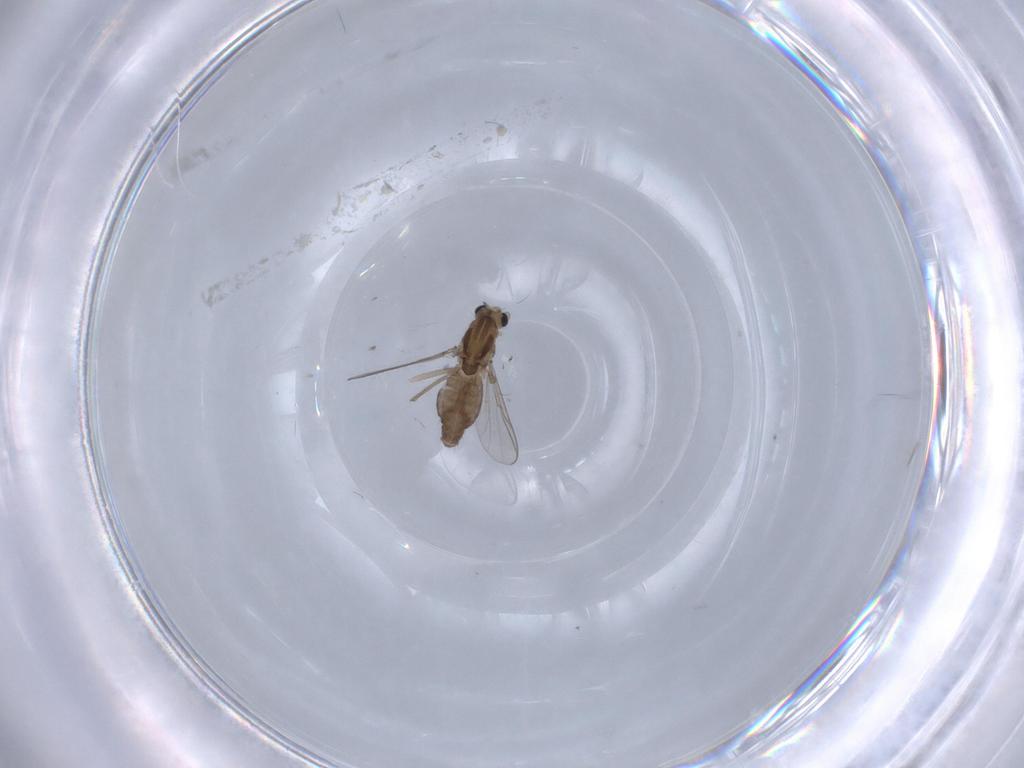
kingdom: Animalia
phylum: Arthropoda
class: Insecta
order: Diptera
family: Chironomidae
